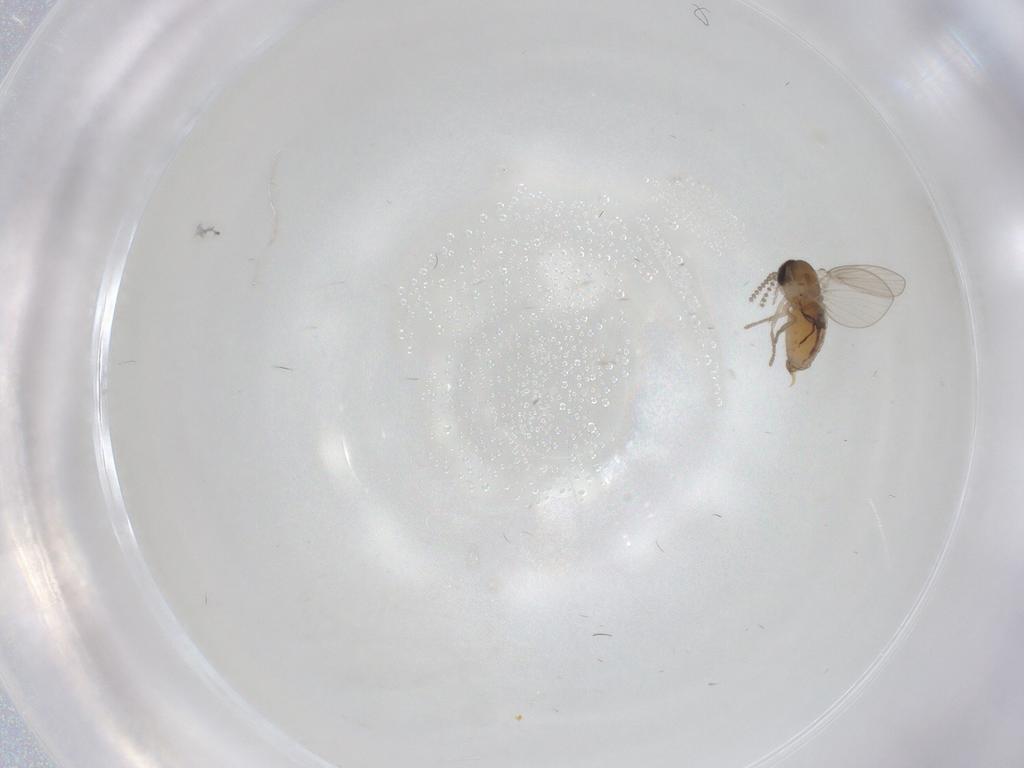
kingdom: Animalia
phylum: Arthropoda
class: Insecta
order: Diptera
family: Psychodidae
